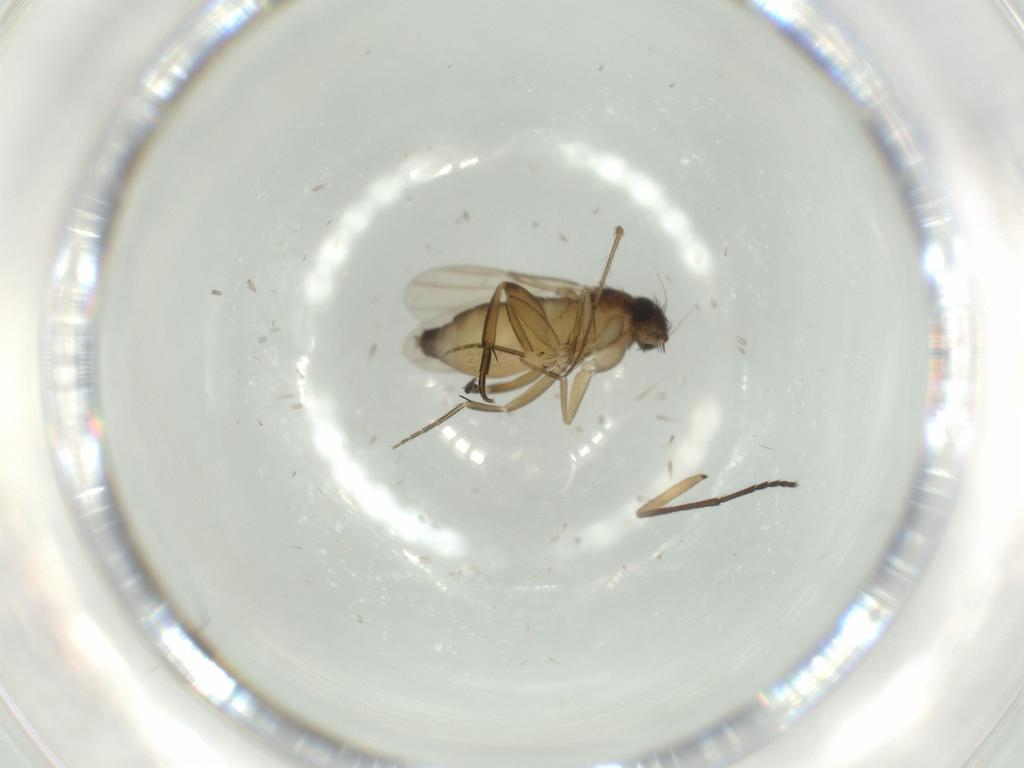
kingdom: Animalia
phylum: Arthropoda
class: Insecta
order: Diptera
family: Phoridae
